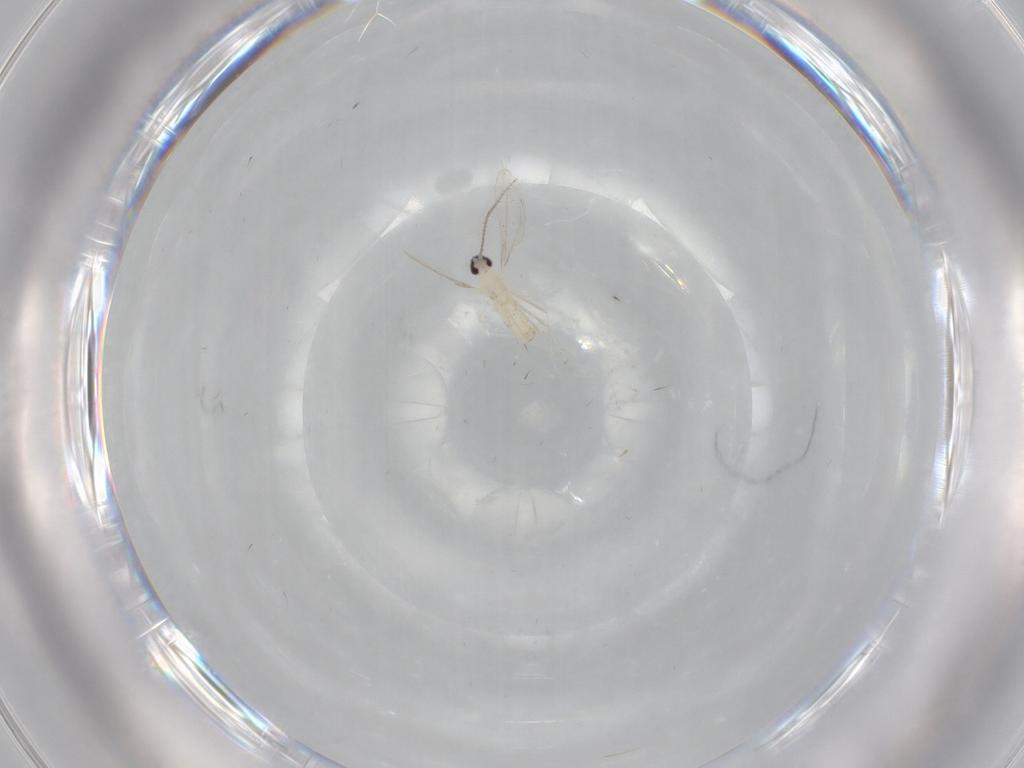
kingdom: Animalia
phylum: Arthropoda
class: Insecta
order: Diptera
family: Cecidomyiidae
